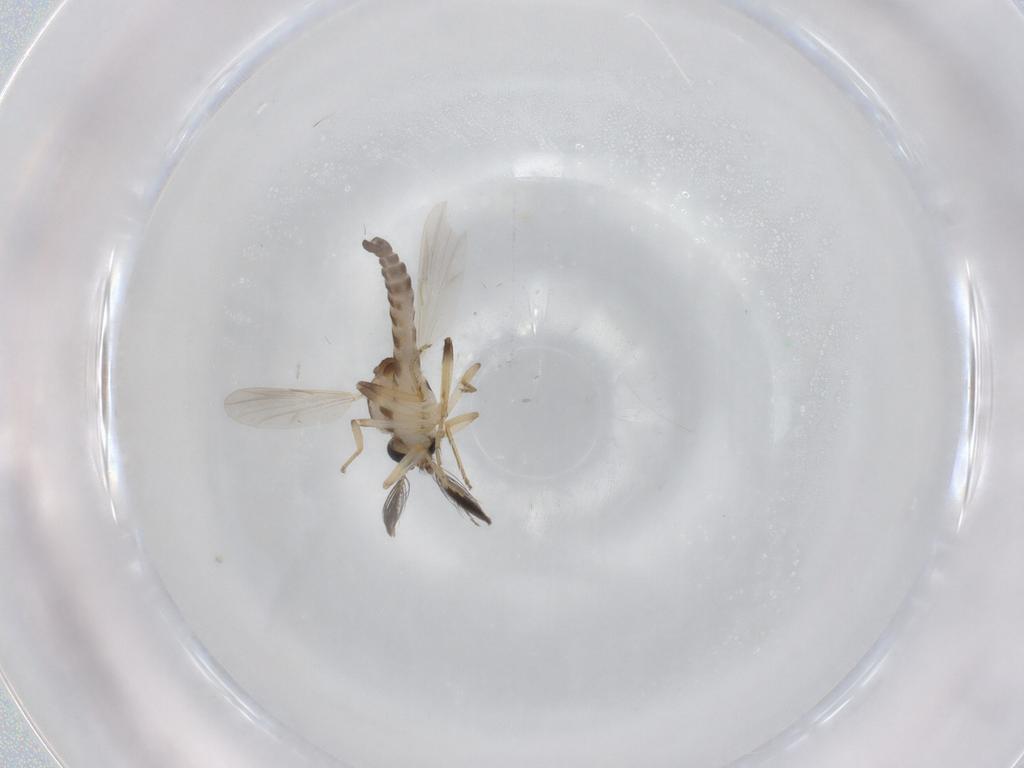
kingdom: Animalia
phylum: Arthropoda
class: Insecta
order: Diptera
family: Ceratopogonidae
